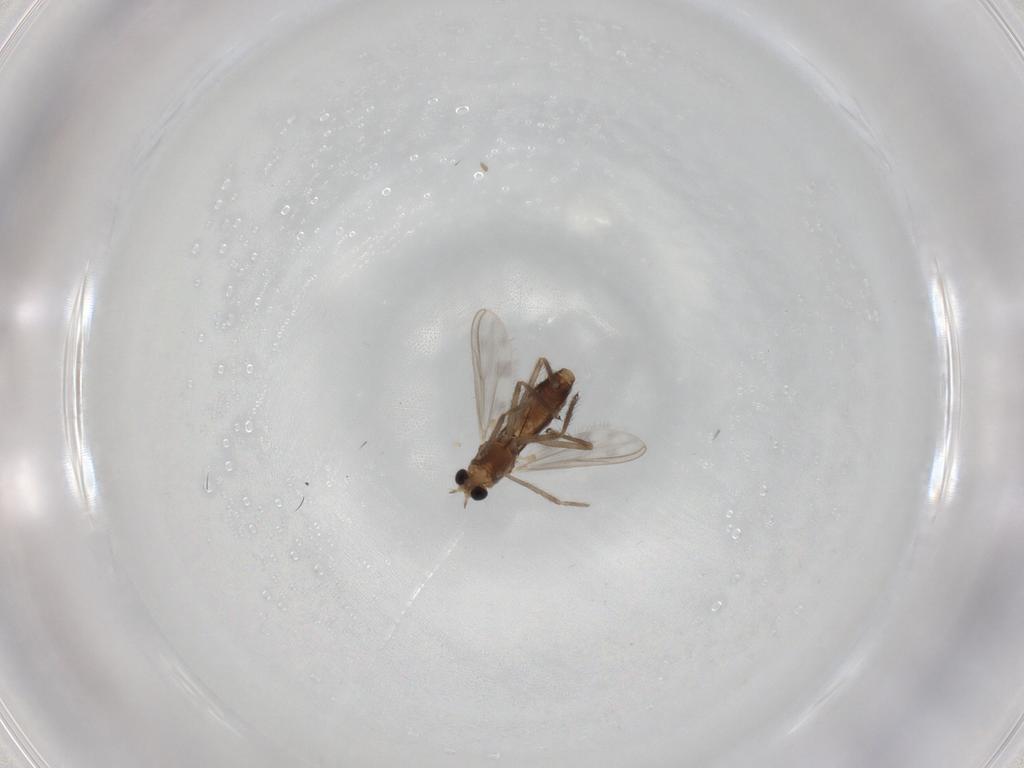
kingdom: Animalia
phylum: Arthropoda
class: Insecta
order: Diptera
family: Chironomidae
